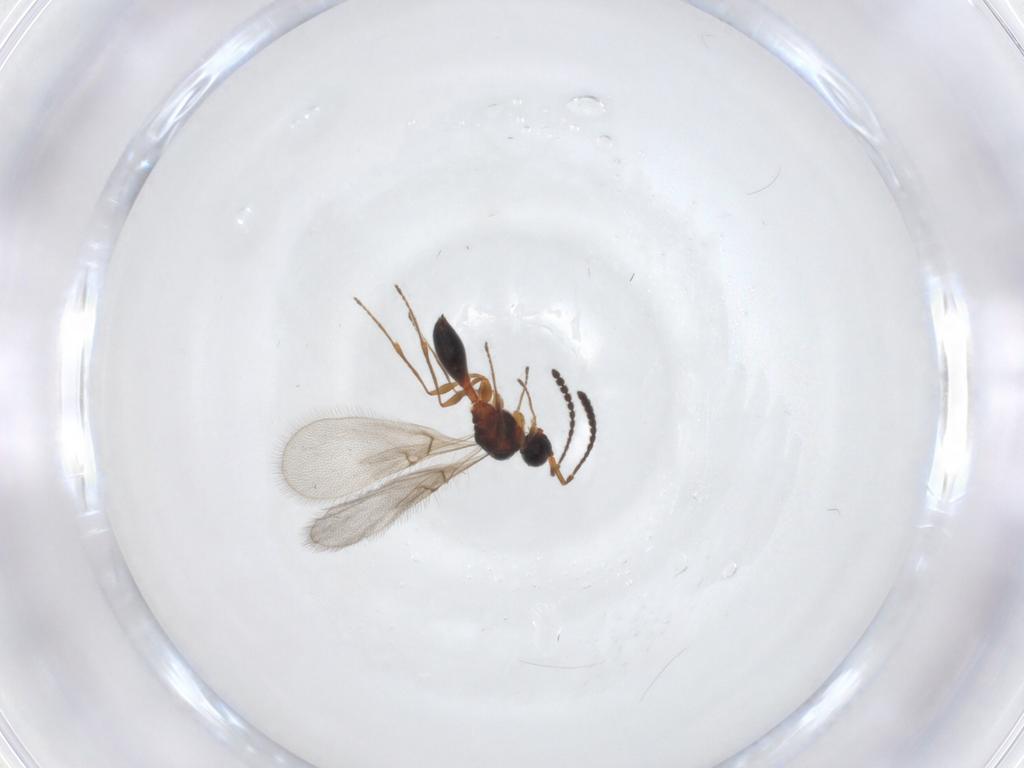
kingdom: Animalia
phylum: Arthropoda
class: Insecta
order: Hymenoptera
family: Diapriidae
